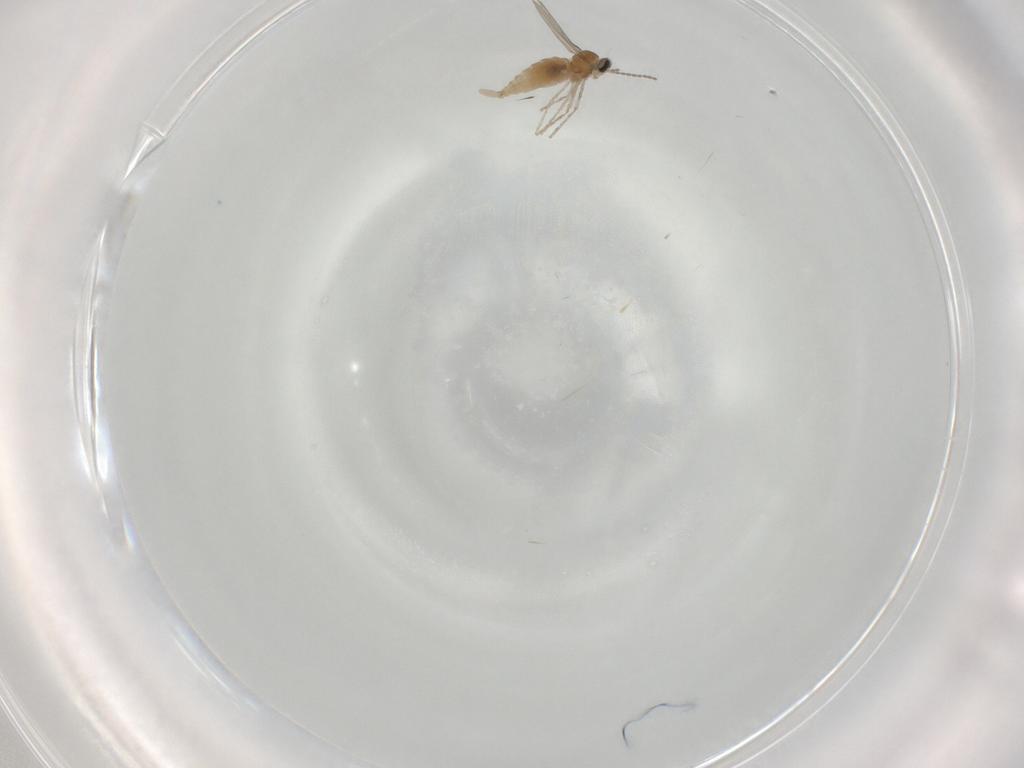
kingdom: Animalia
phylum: Arthropoda
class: Insecta
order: Diptera
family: Cecidomyiidae
